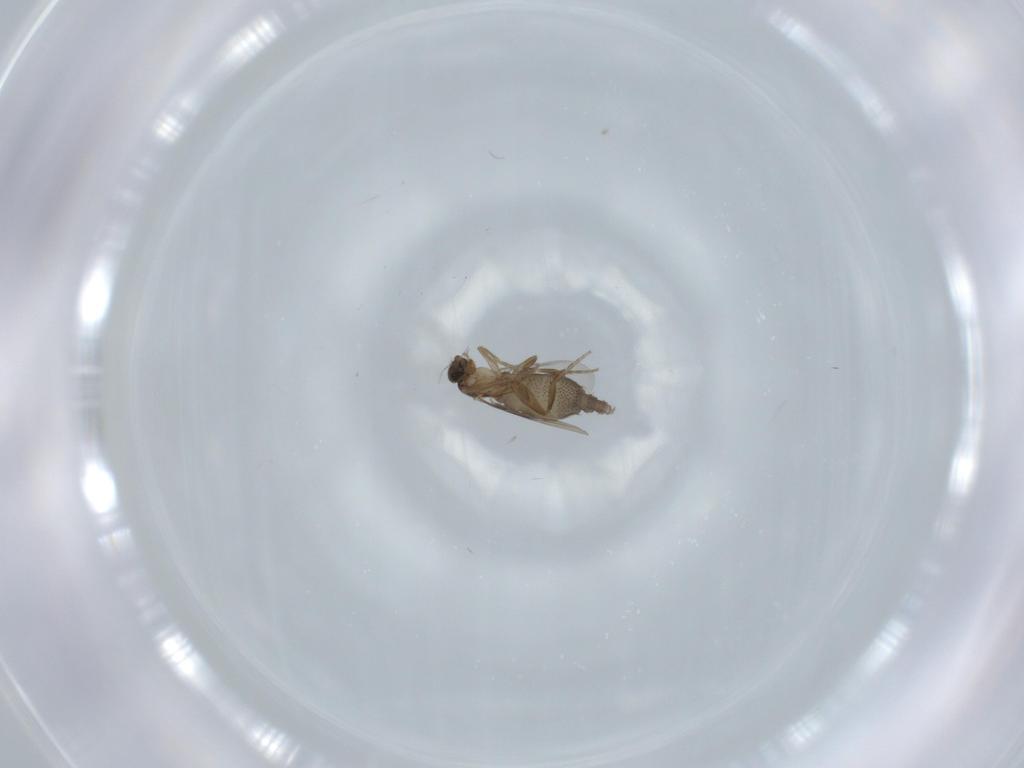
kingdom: Animalia
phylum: Arthropoda
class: Insecta
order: Diptera
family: Phoridae
